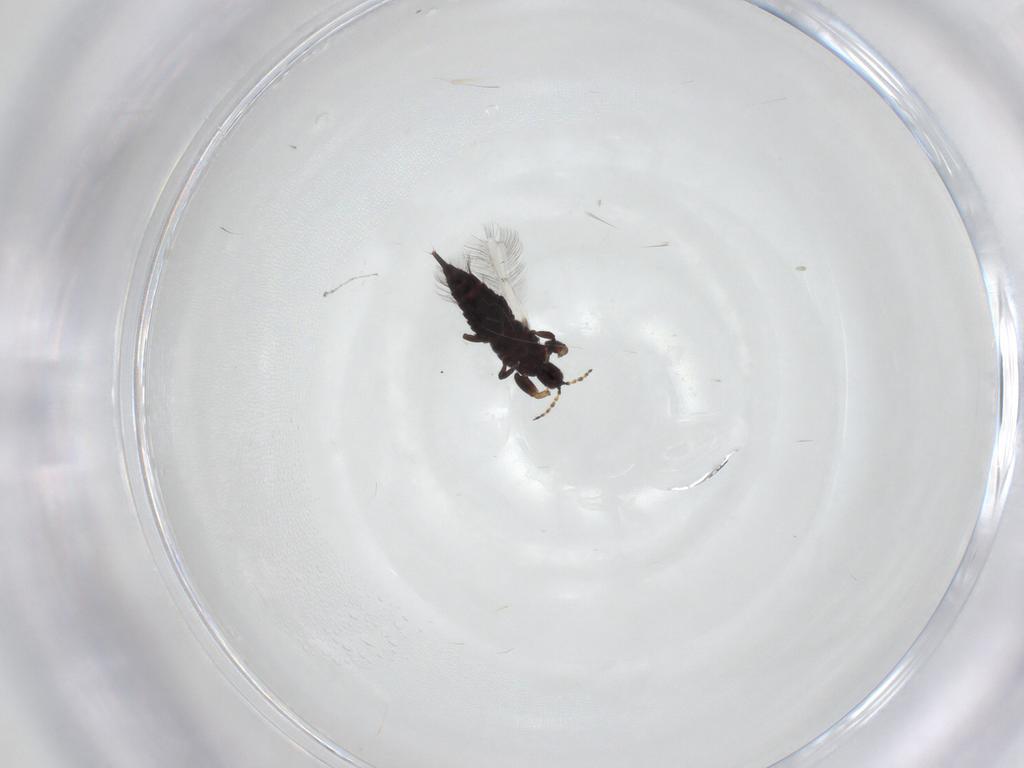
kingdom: Animalia
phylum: Arthropoda
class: Insecta
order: Thysanoptera
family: Phlaeothripidae
